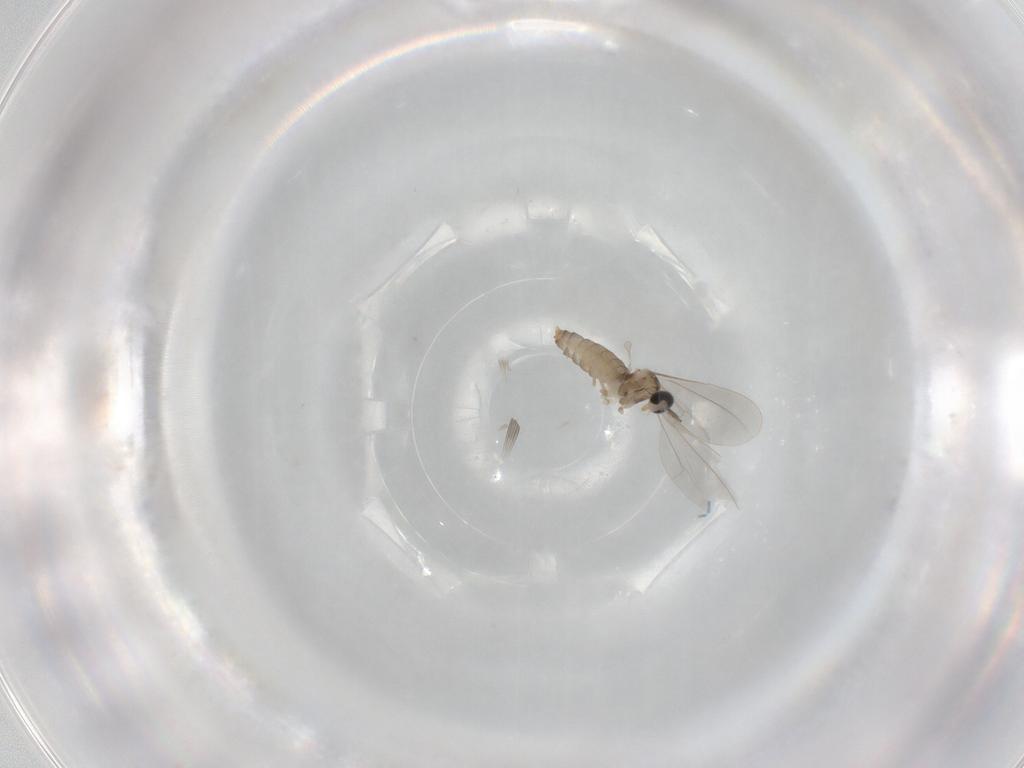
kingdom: Animalia
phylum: Arthropoda
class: Insecta
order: Diptera
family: Cecidomyiidae
